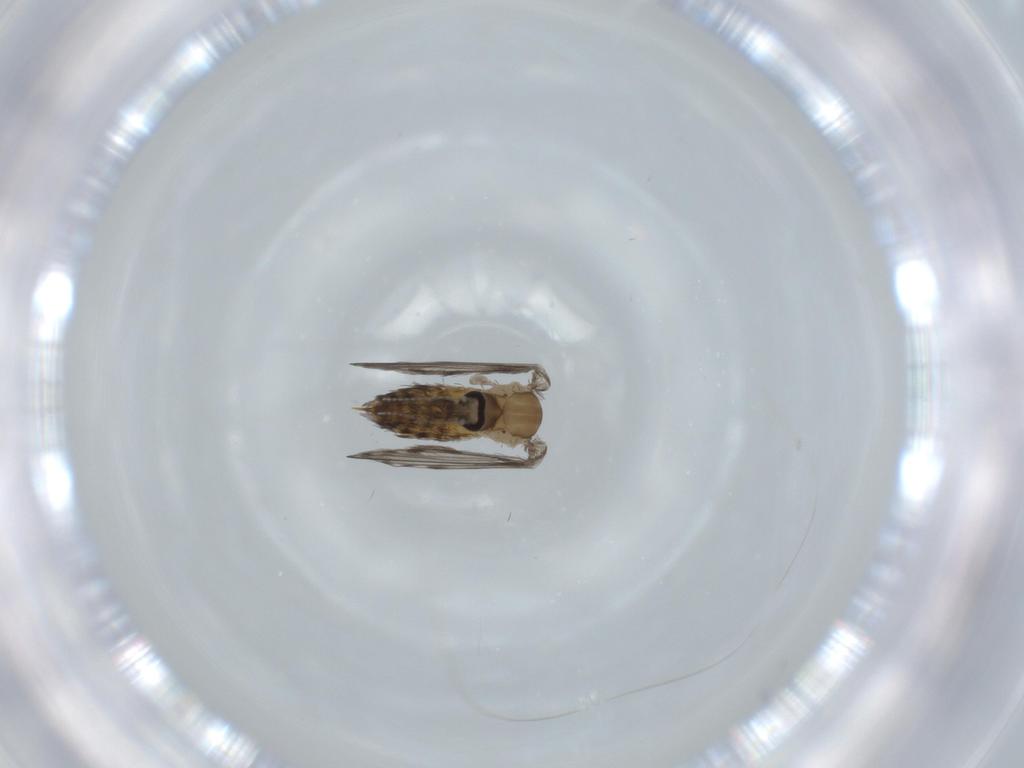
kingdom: Animalia
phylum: Arthropoda
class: Insecta
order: Diptera
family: Psychodidae
